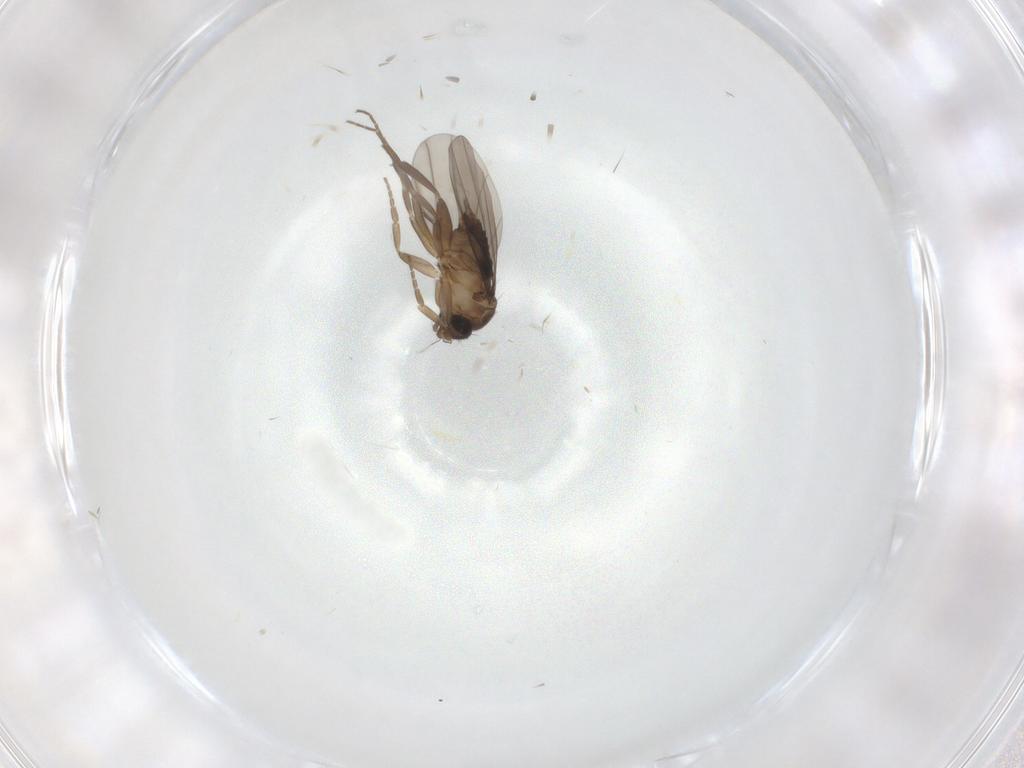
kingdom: Animalia
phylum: Arthropoda
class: Insecta
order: Diptera
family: Phoridae
